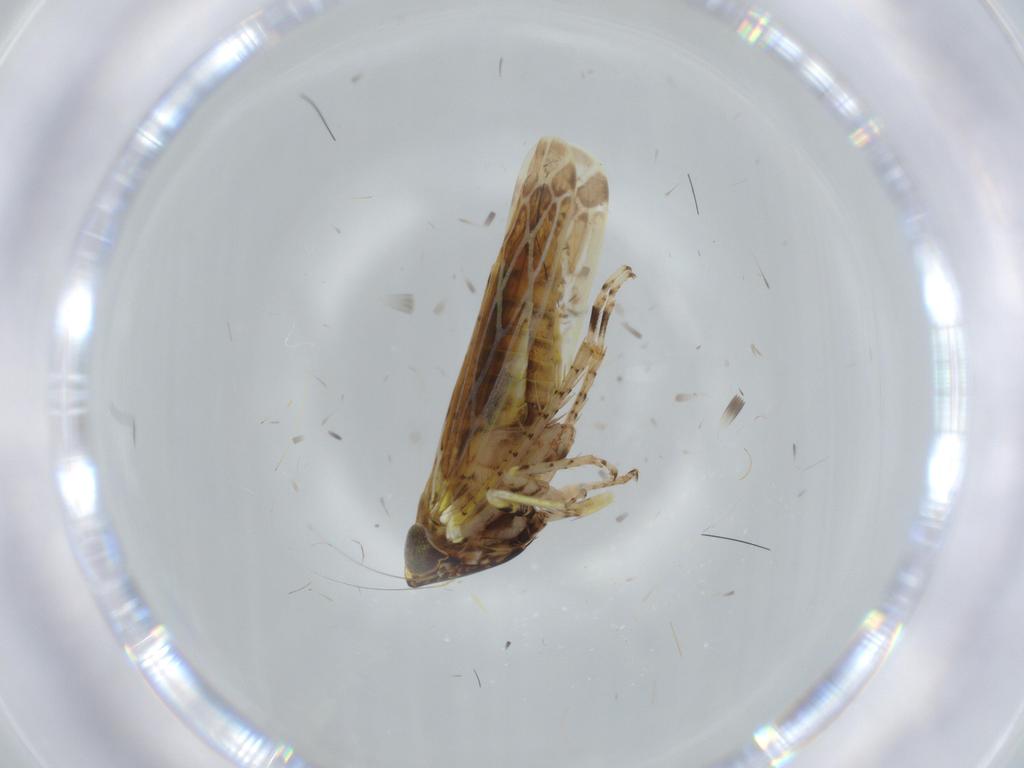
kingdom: Animalia
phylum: Arthropoda
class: Insecta
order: Hemiptera
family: Cicadellidae
